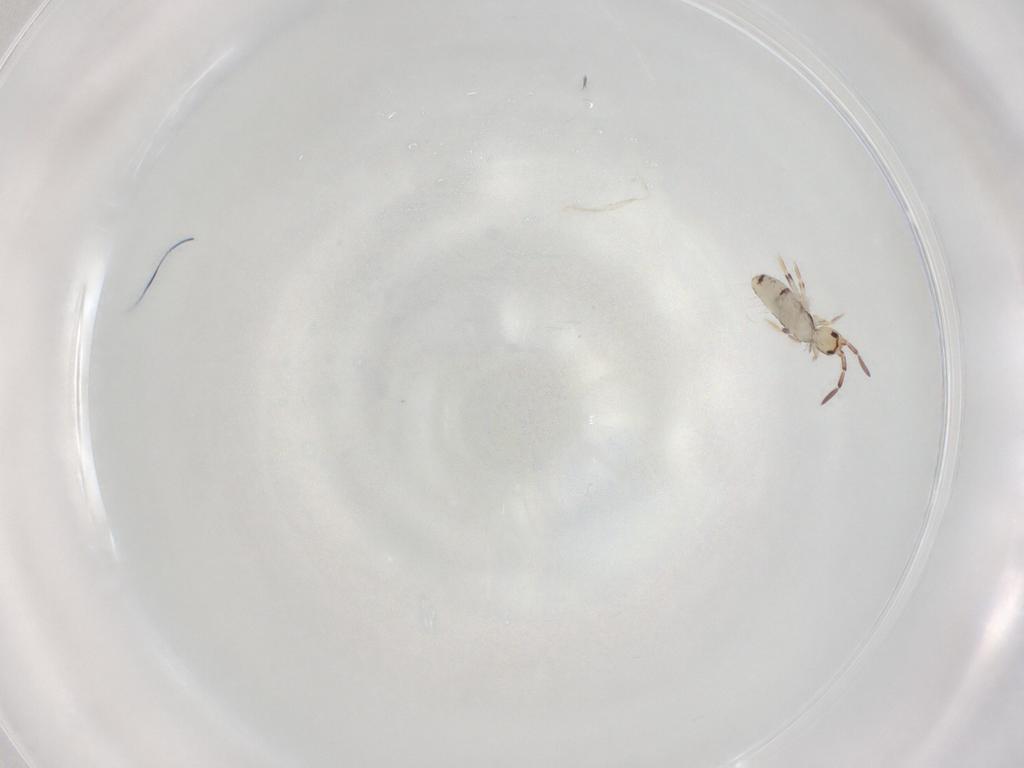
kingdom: Animalia
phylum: Arthropoda
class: Collembola
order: Entomobryomorpha
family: Entomobryidae
